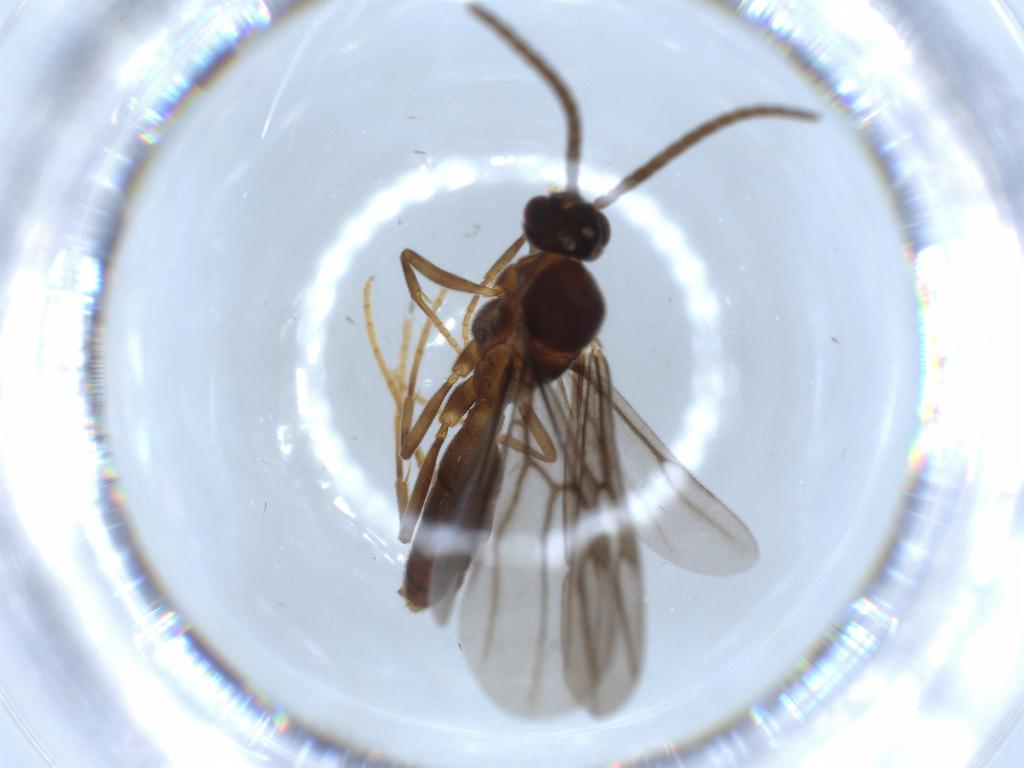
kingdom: Animalia
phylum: Arthropoda
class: Insecta
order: Hymenoptera
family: Formicidae
